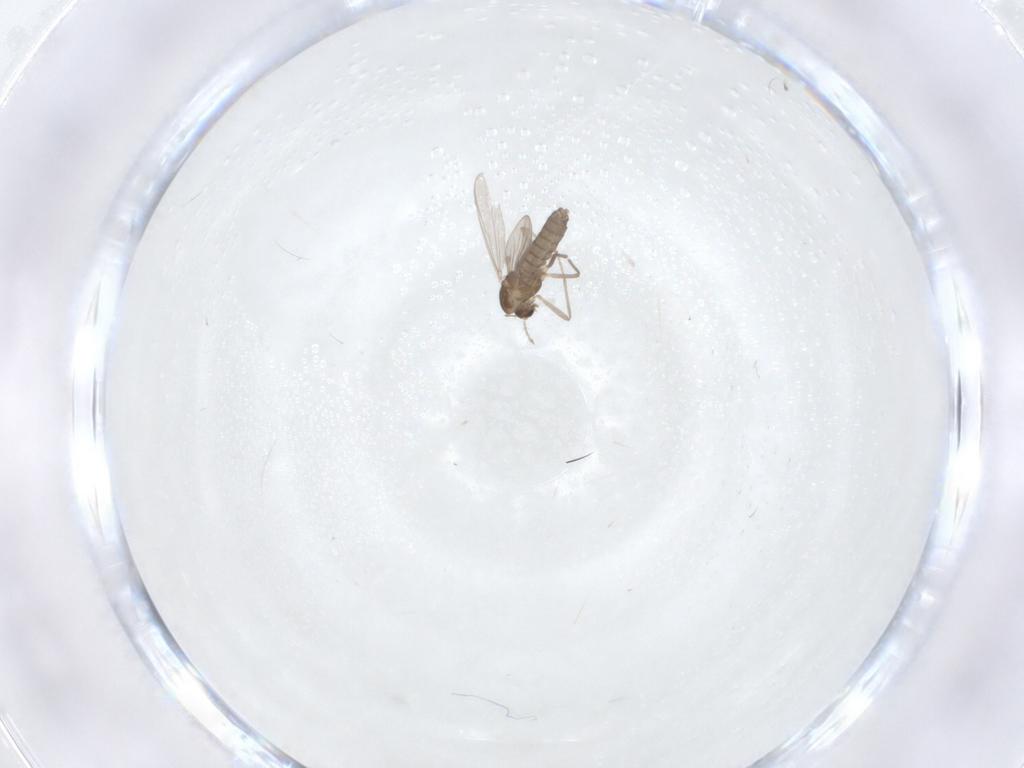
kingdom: Animalia
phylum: Arthropoda
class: Insecta
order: Diptera
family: Chironomidae
